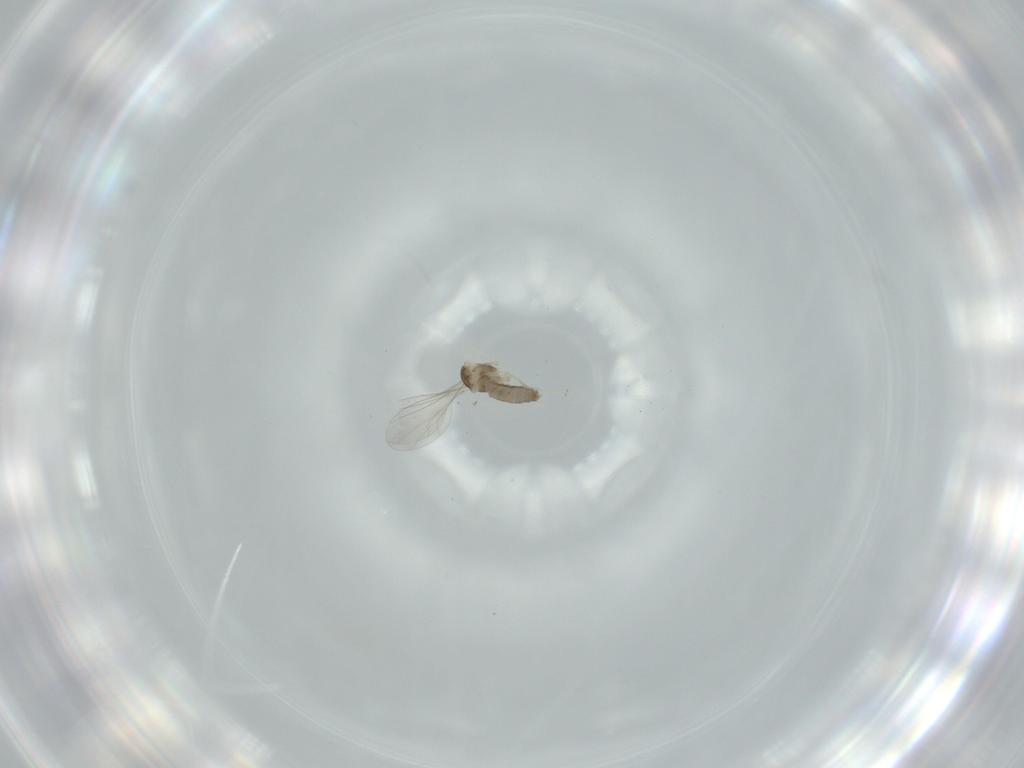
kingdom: Animalia
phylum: Arthropoda
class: Insecta
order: Diptera
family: Cecidomyiidae
